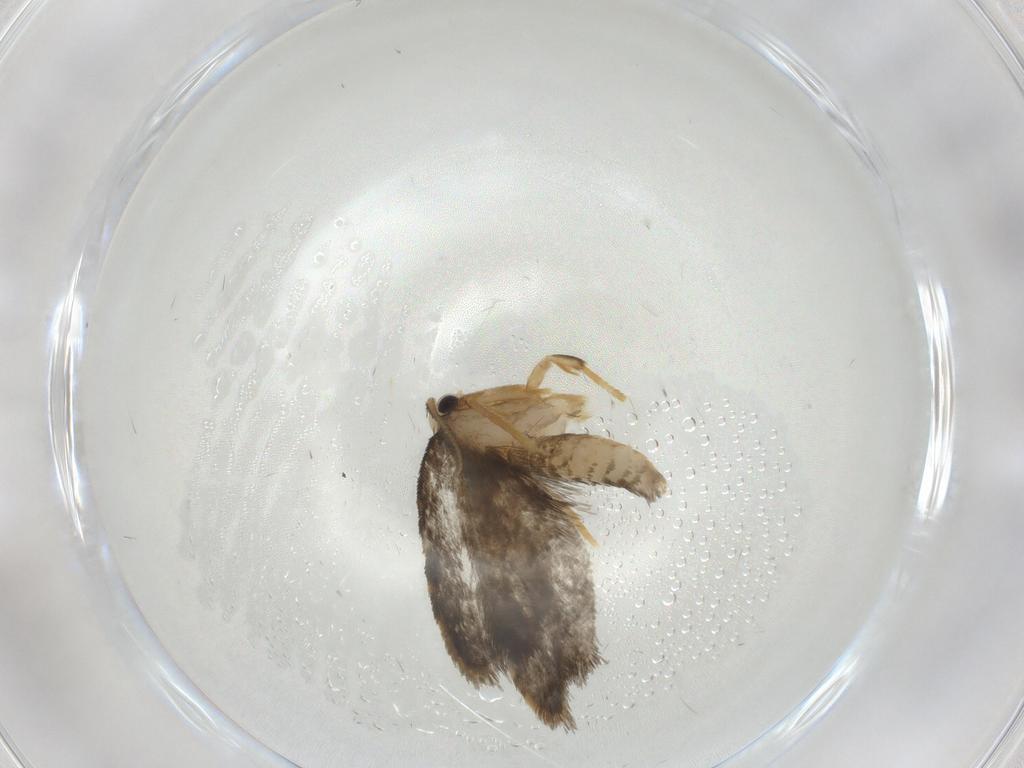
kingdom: Animalia
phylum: Arthropoda
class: Insecta
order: Lepidoptera
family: Psychidae
